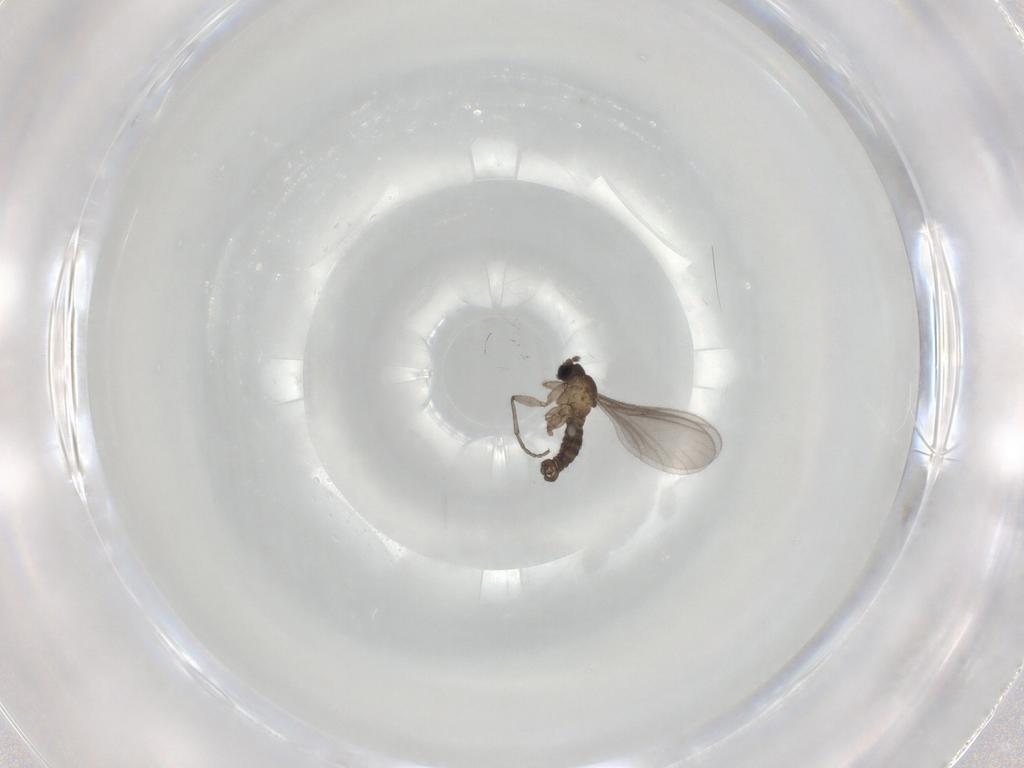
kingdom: Animalia
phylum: Arthropoda
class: Insecta
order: Diptera
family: Sciaridae
